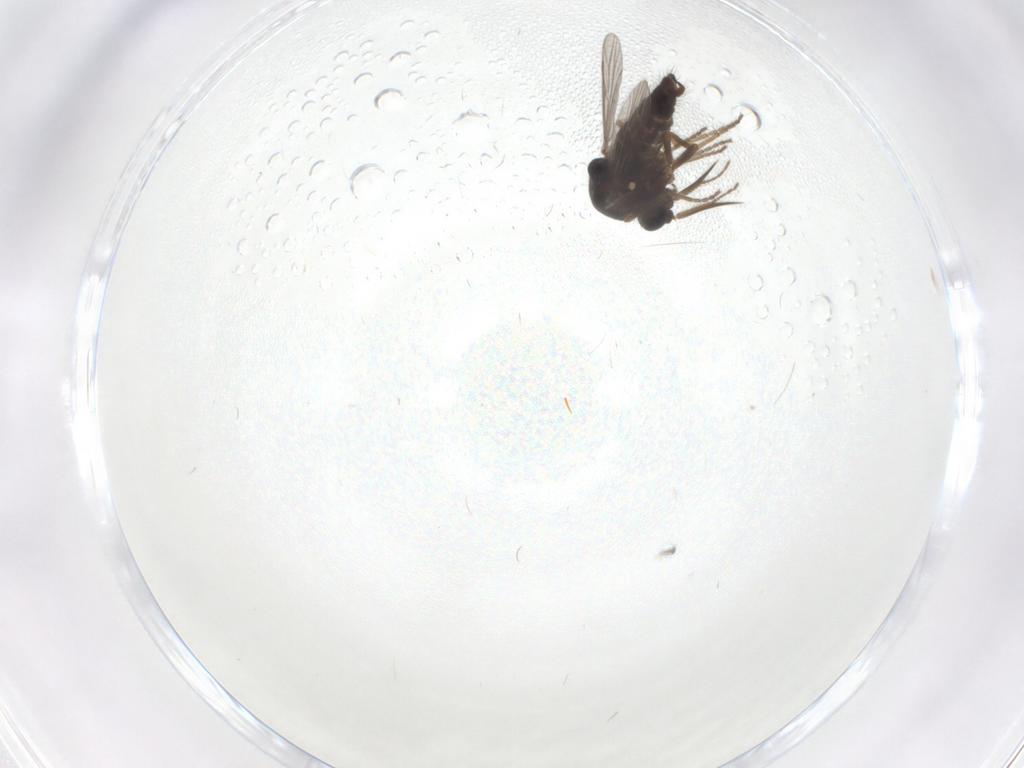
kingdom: Animalia
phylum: Arthropoda
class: Insecta
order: Diptera
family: Ceratopogonidae
